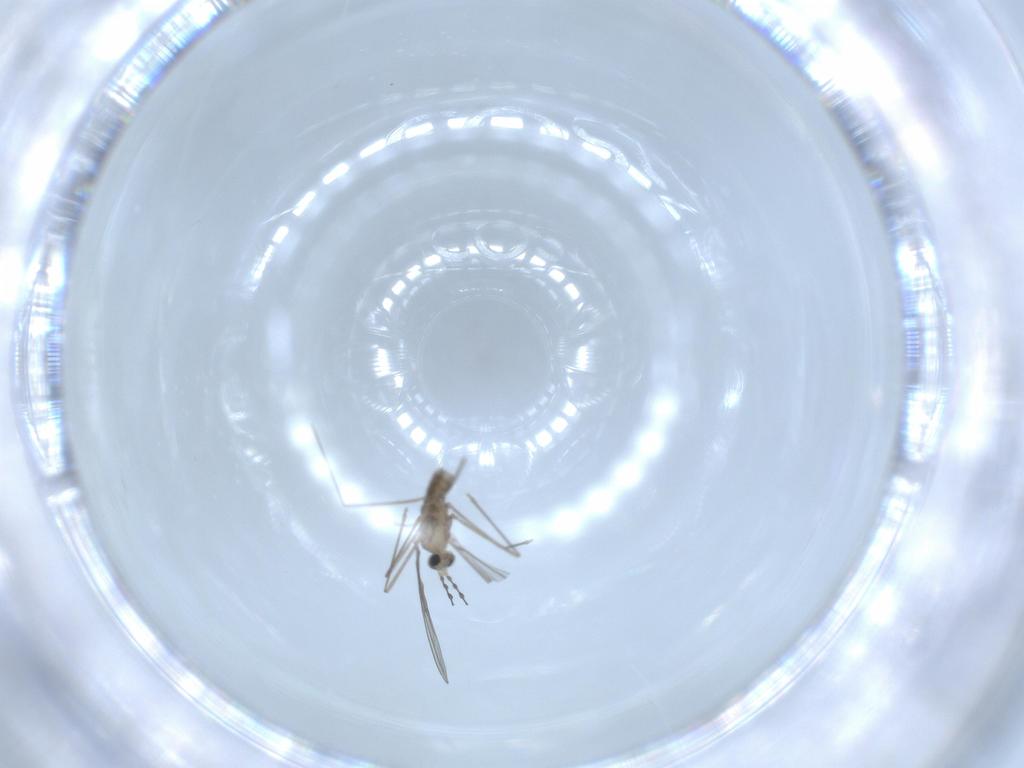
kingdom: Animalia
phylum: Arthropoda
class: Insecta
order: Diptera
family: Cecidomyiidae
